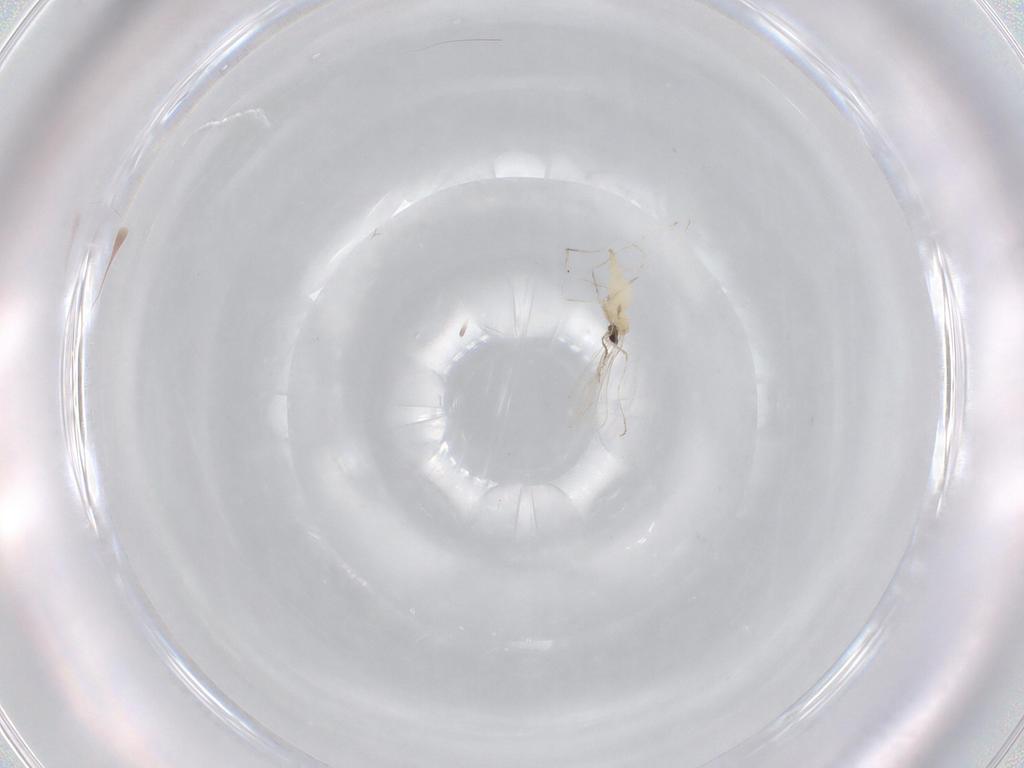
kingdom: Animalia
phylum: Arthropoda
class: Insecta
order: Diptera
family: Cecidomyiidae
